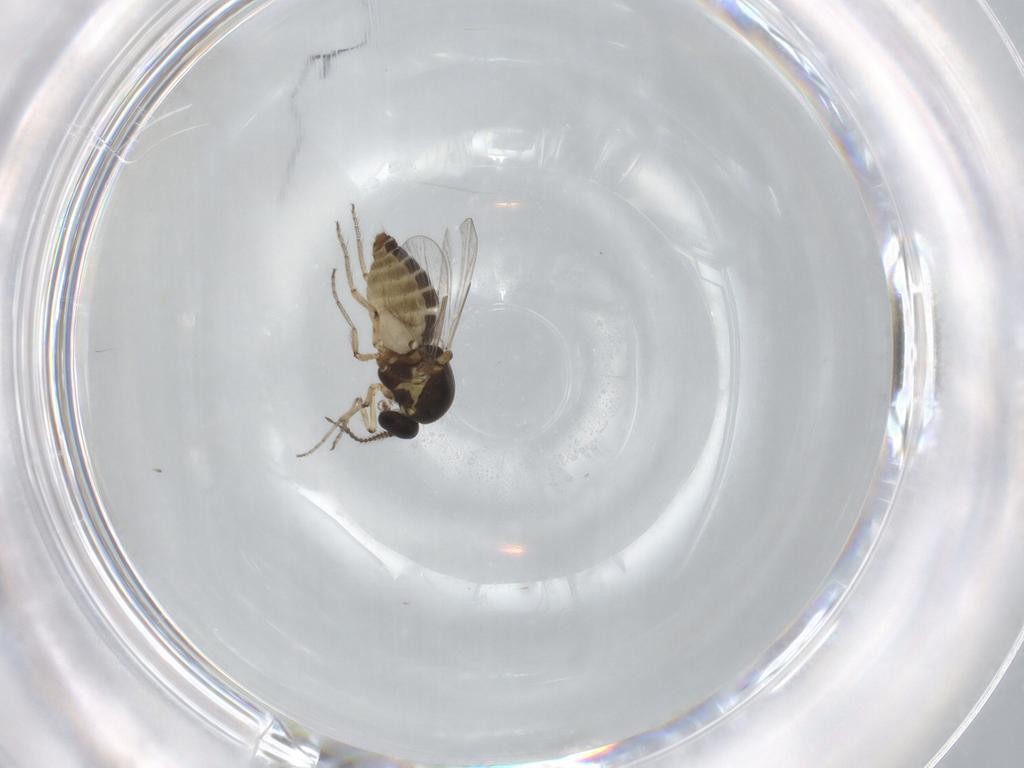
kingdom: Animalia
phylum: Arthropoda
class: Insecta
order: Diptera
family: Ceratopogonidae
